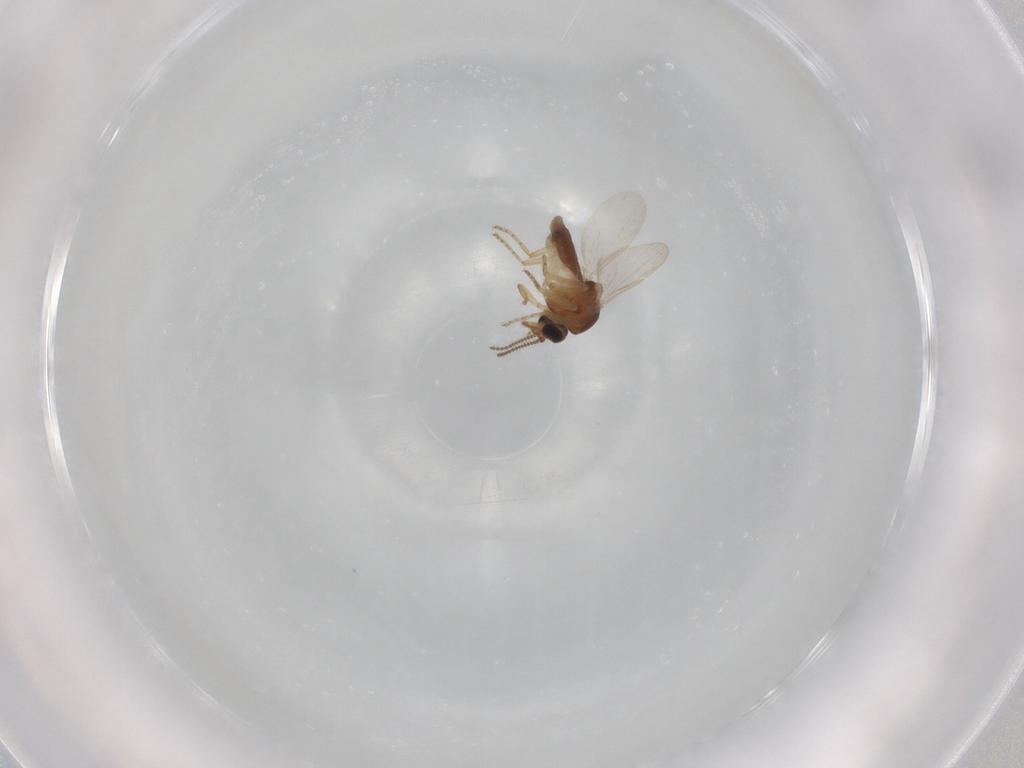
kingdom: Animalia
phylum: Arthropoda
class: Insecta
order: Diptera
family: Ceratopogonidae
